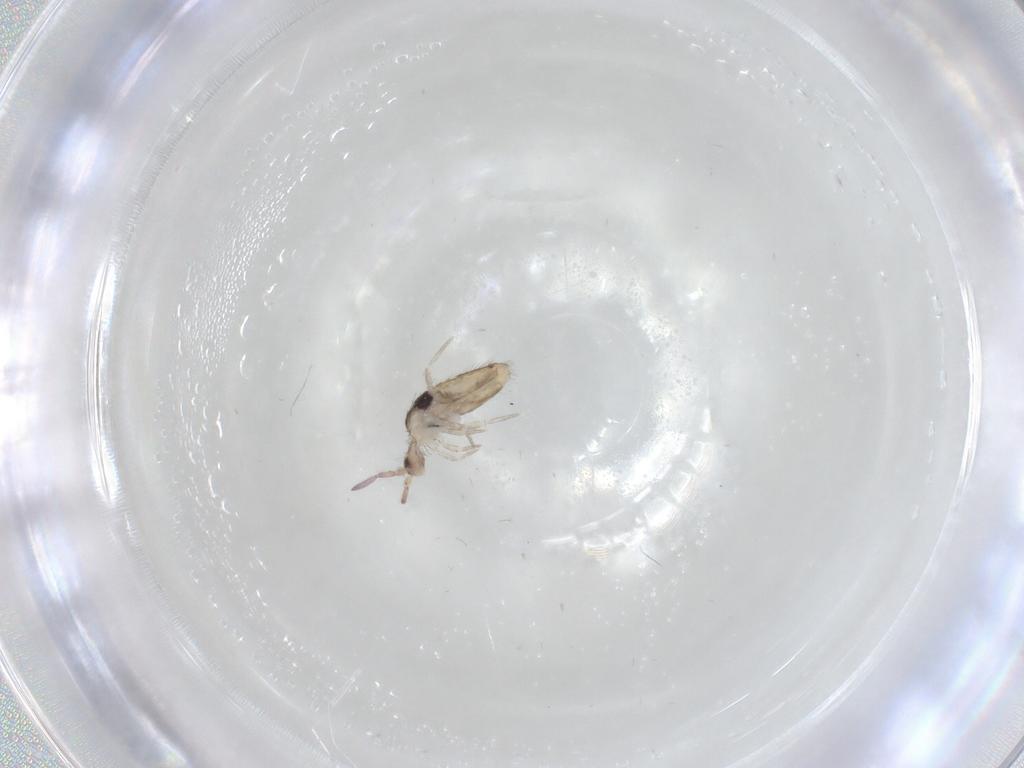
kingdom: Animalia
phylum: Arthropoda
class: Collembola
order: Entomobryomorpha
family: Entomobryidae
